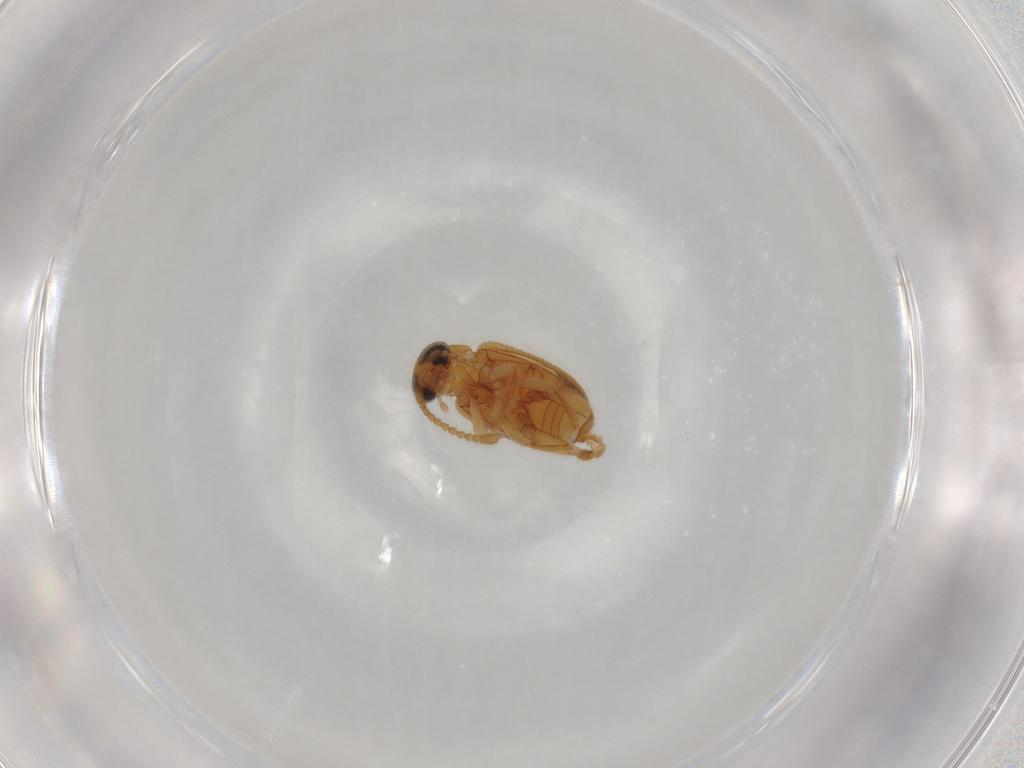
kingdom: Animalia
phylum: Arthropoda
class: Insecta
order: Coleoptera
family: Aderidae
